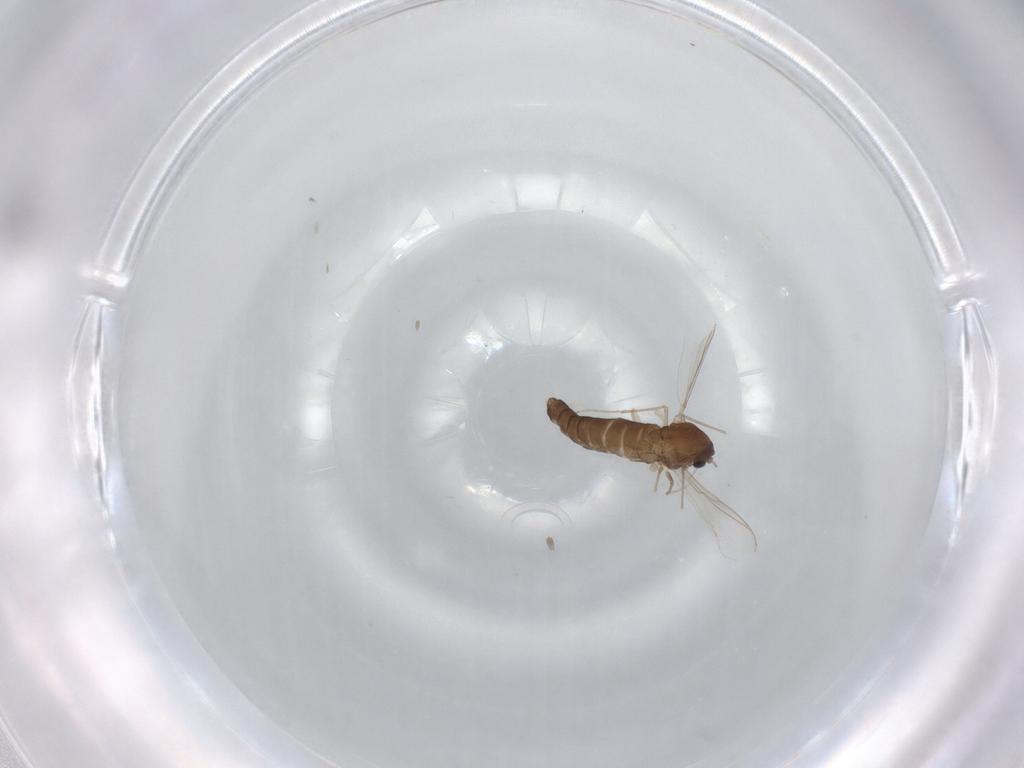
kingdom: Animalia
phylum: Arthropoda
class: Insecta
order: Diptera
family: Chironomidae
